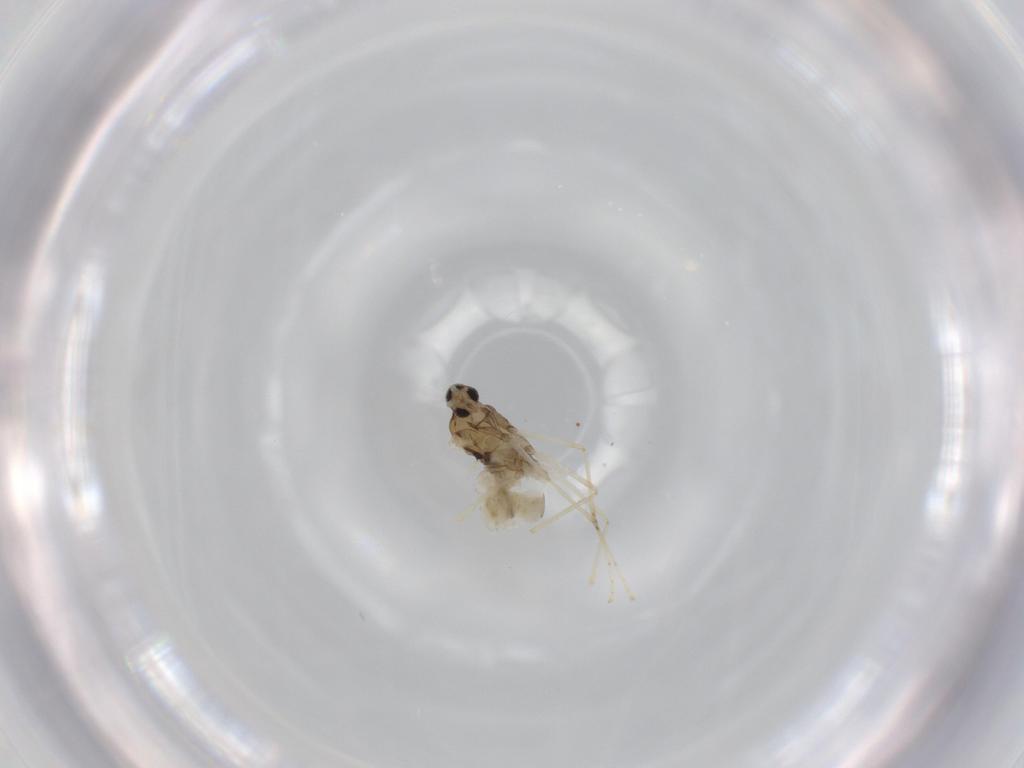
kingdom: Animalia
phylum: Arthropoda
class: Insecta
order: Diptera
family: Cecidomyiidae
